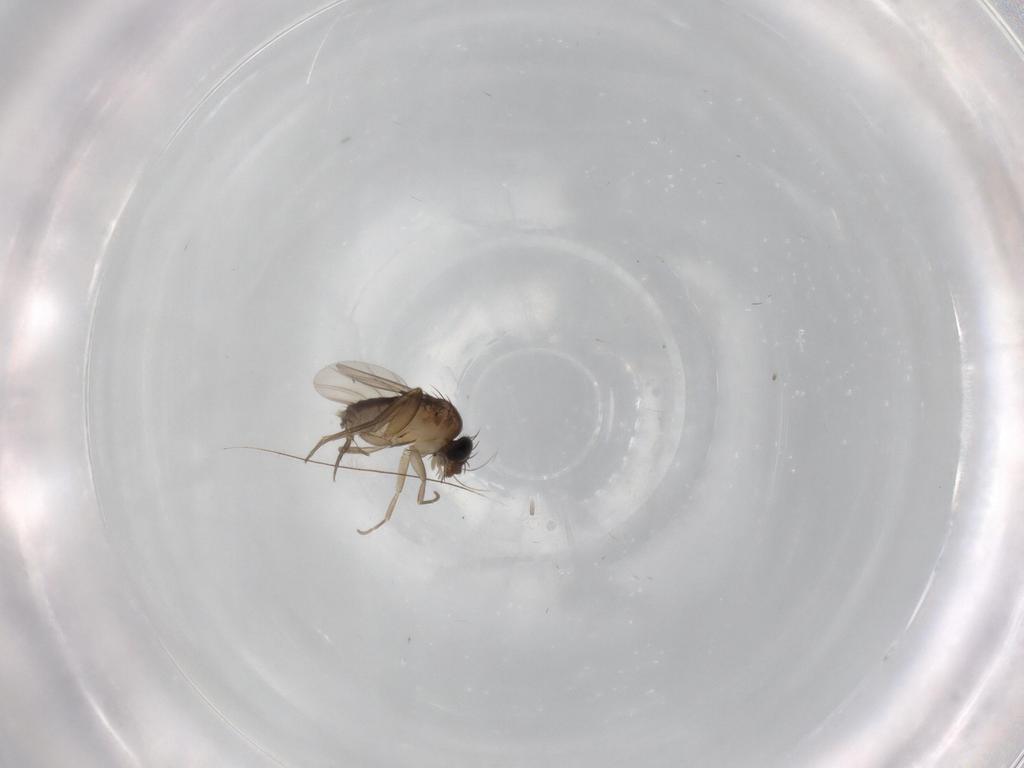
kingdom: Animalia
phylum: Arthropoda
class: Insecta
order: Diptera
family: Phoridae
